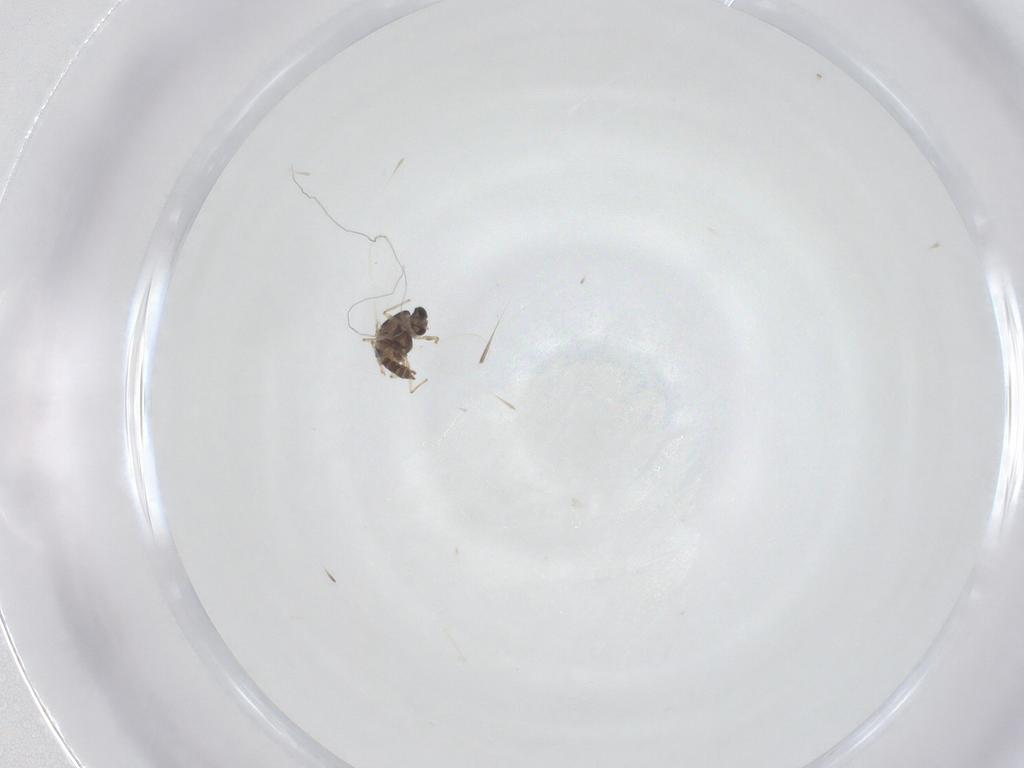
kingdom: Animalia
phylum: Arthropoda
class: Insecta
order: Diptera
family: Chironomidae
